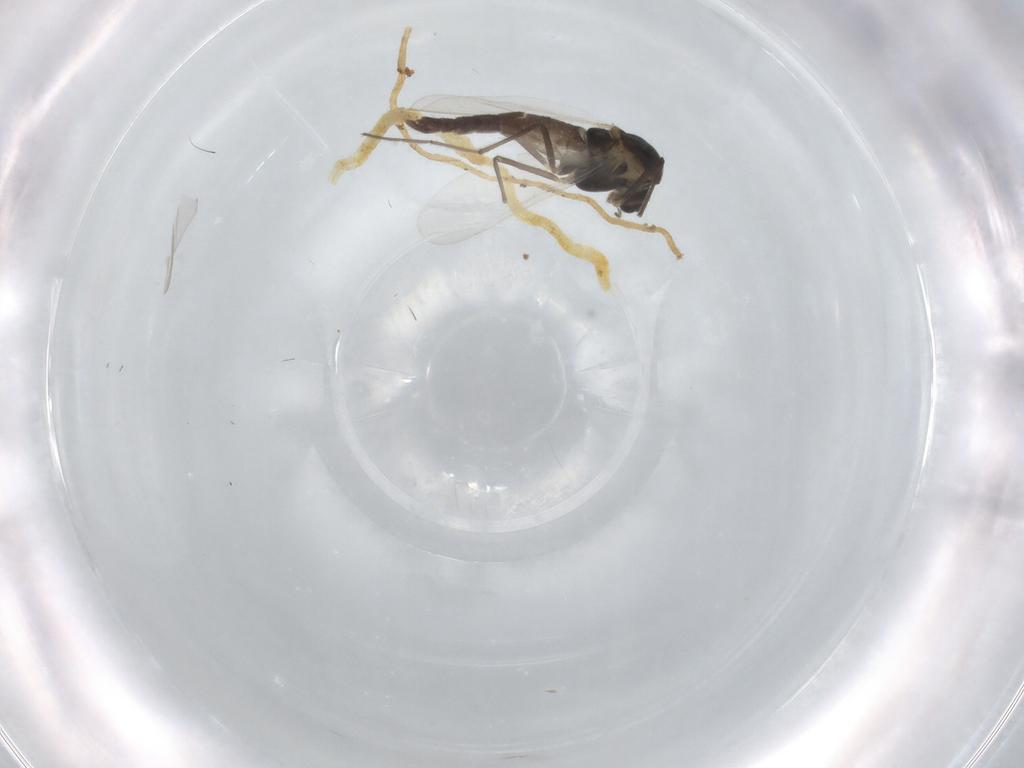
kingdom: Animalia
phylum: Arthropoda
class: Insecta
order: Diptera
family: Chironomidae
